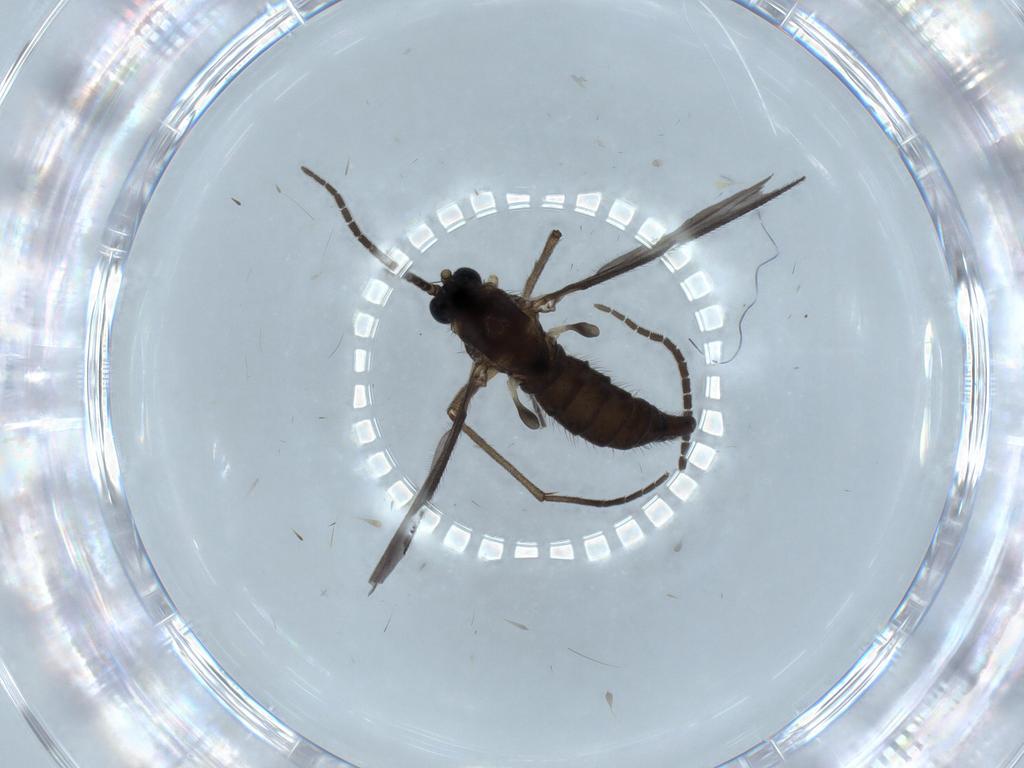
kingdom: Animalia
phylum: Arthropoda
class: Insecta
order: Diptera
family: Sciaridae
